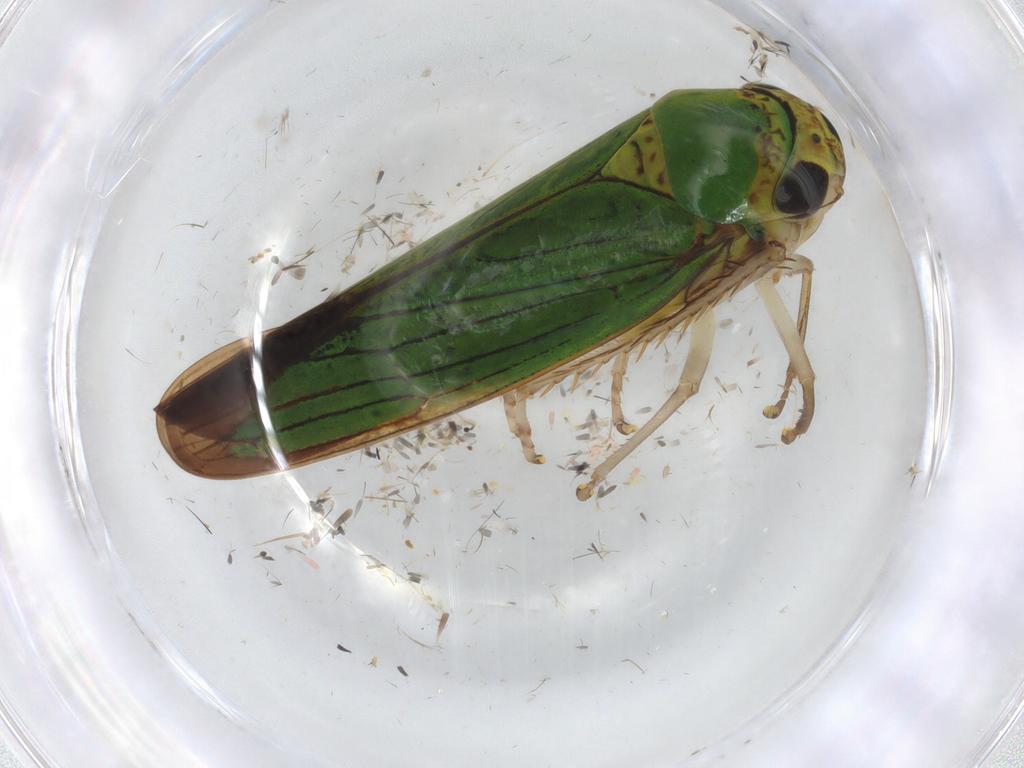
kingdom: Animalia
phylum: Arthropoda
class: Insecta
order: Hemiptera
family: Cicadellidae
